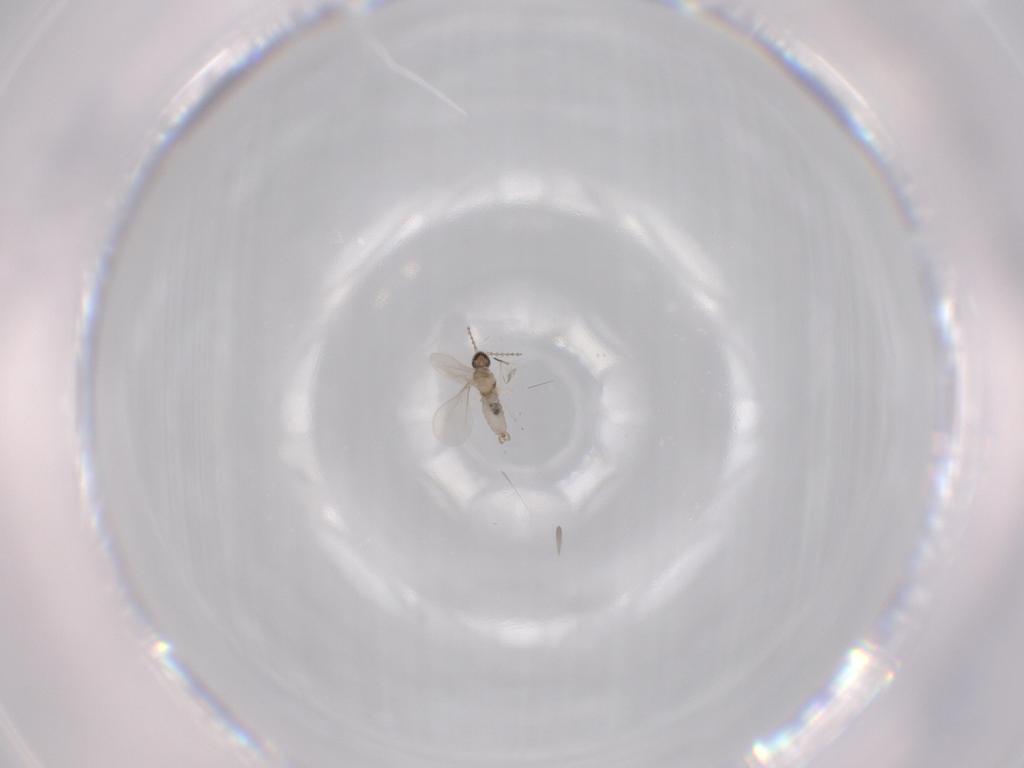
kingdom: Animalia
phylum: Arthropoda
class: Insecta
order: Diptera
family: Cecidomyiidae
